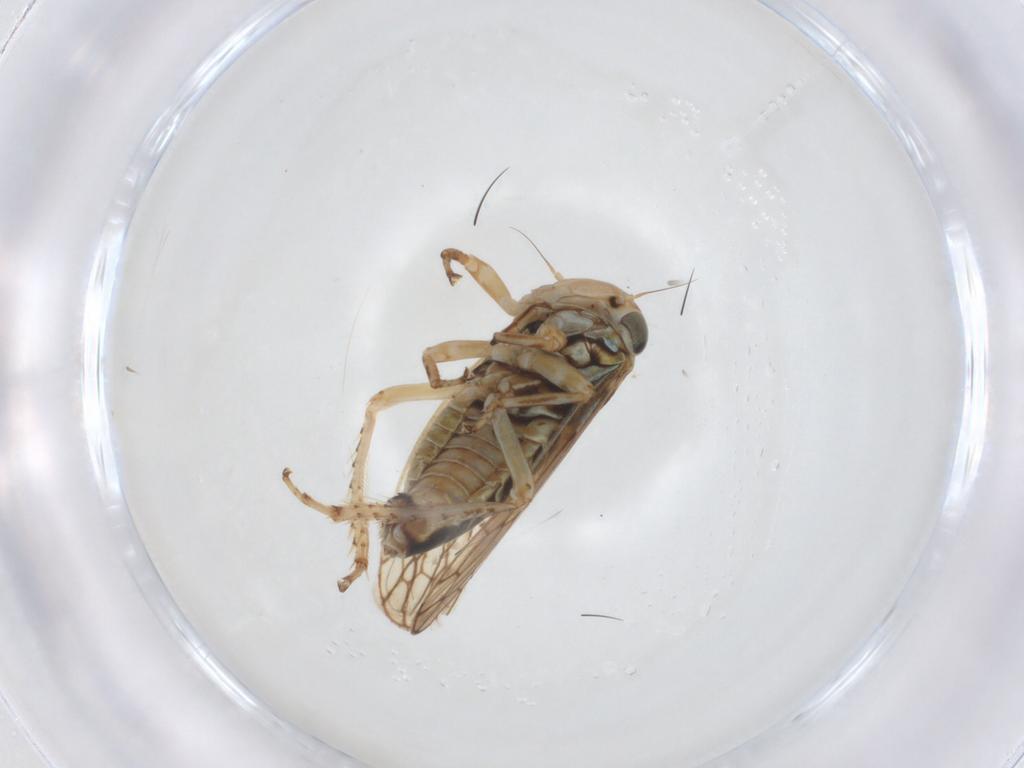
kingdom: Animalia
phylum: Arthropoda
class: Insecta
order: Hemiptera
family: Cicadellidae
